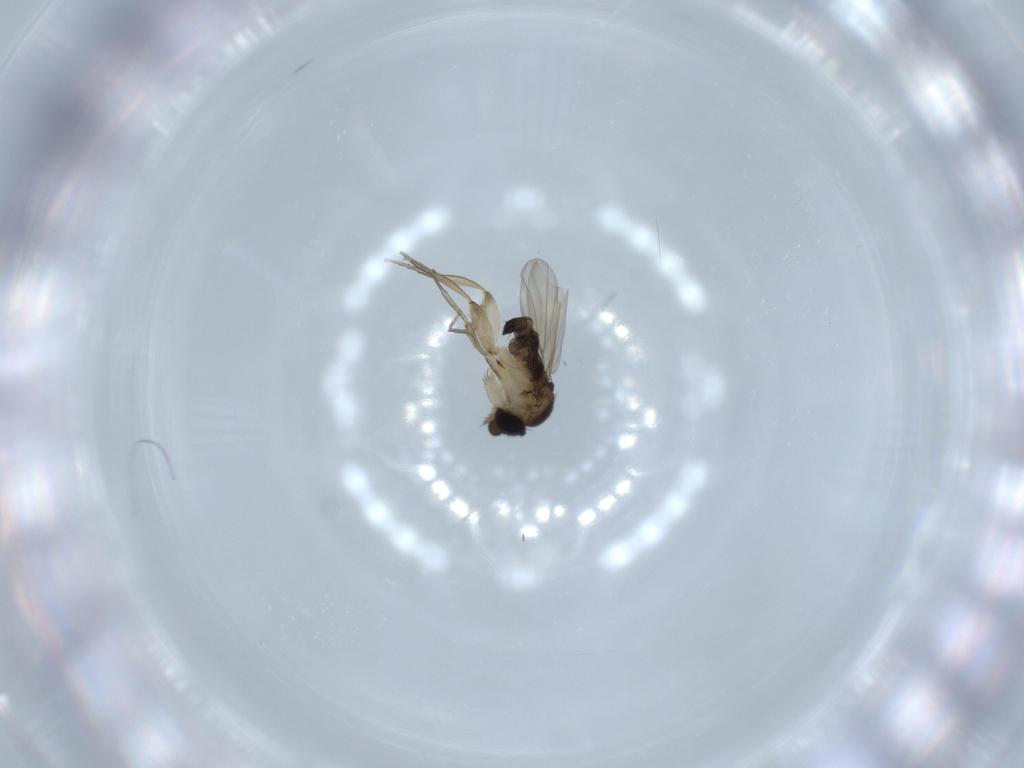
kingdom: Animalia
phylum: Arthropoda
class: Insecta
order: Diptera
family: Phoridae
